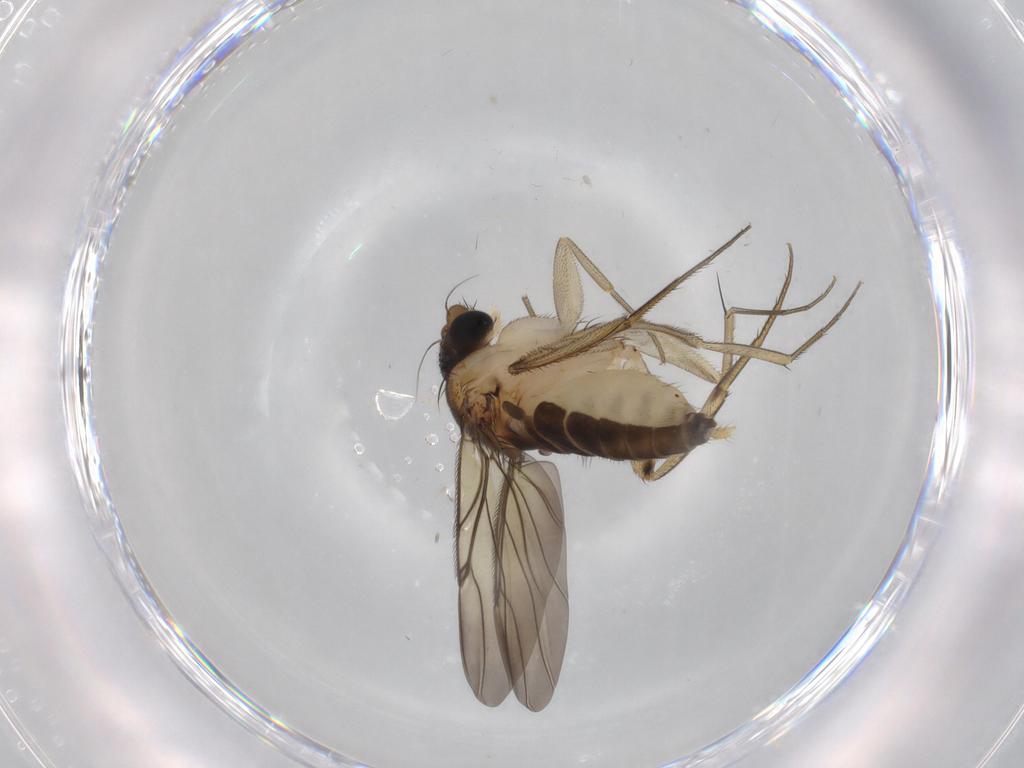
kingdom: Animalia
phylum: Arthropoda
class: Insecta
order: Diptera
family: Phoridae
